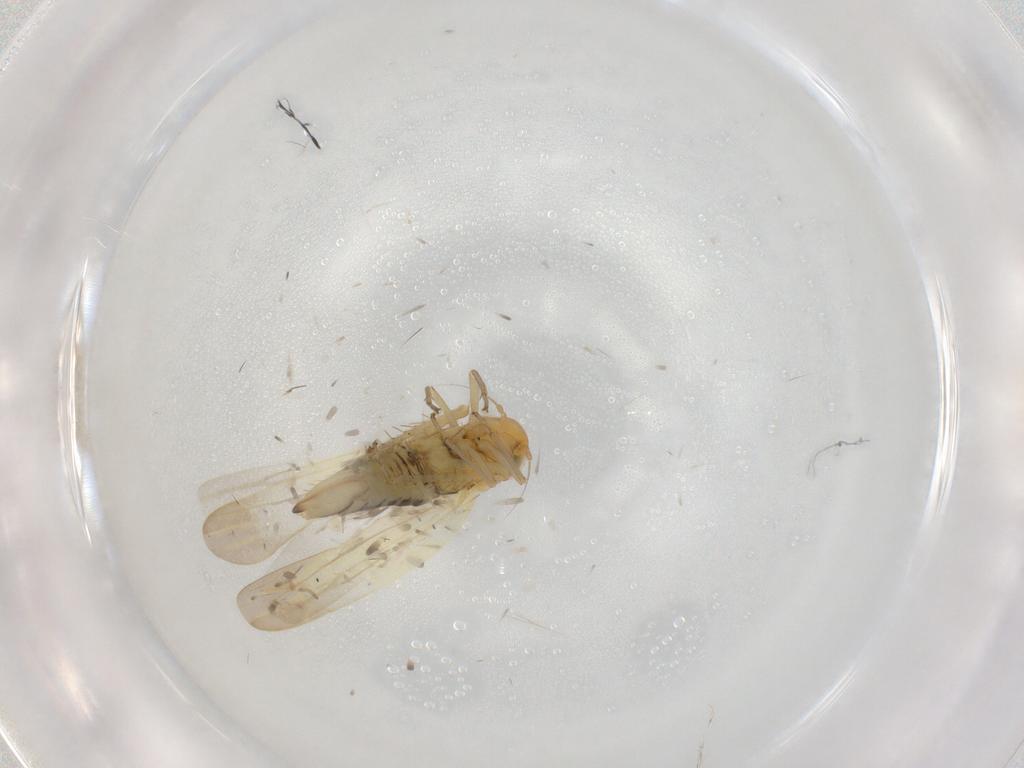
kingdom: Animalia
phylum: Arthropoda
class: Insecta
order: Hemiptera
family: Cicadellidae
